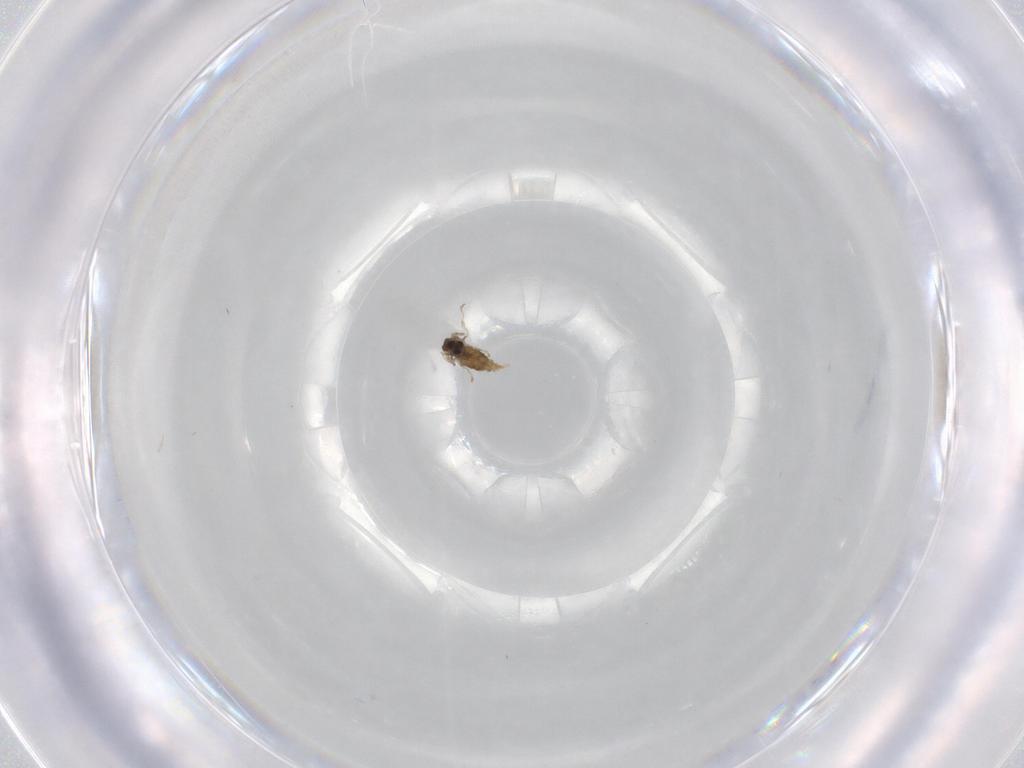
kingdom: Animalia
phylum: Arthropoda
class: Insecta
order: Diptera
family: Cecidomyiidae
